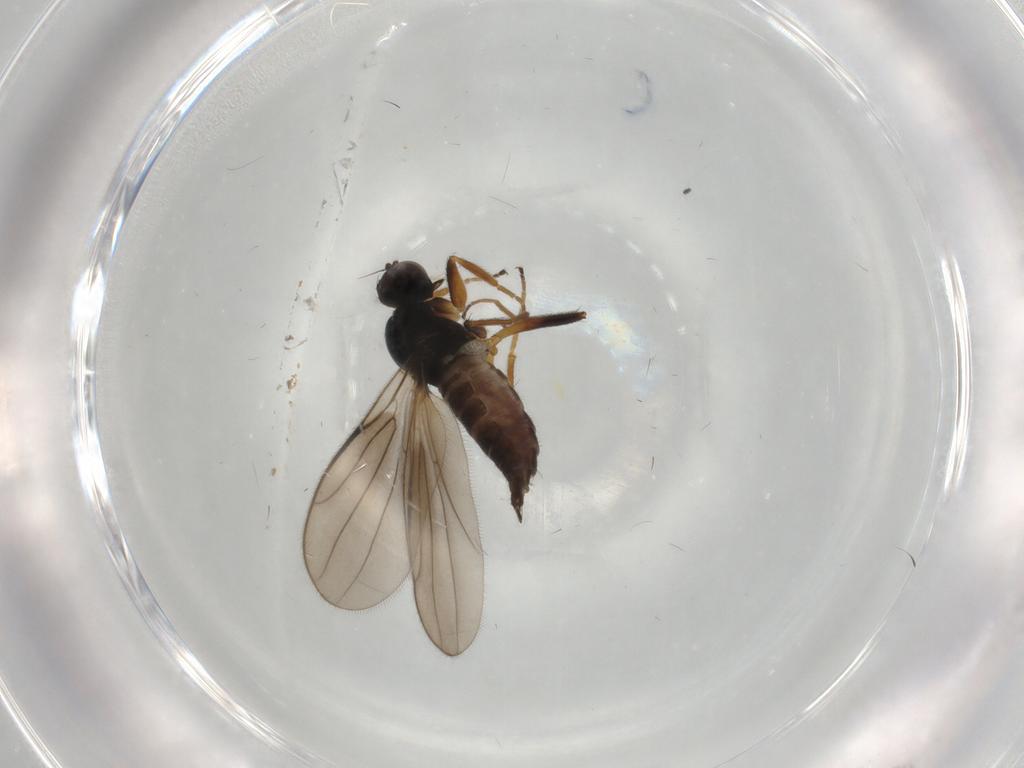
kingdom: Animalia
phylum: Arthropoda
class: Insecta
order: Diptera
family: Hybotidae
